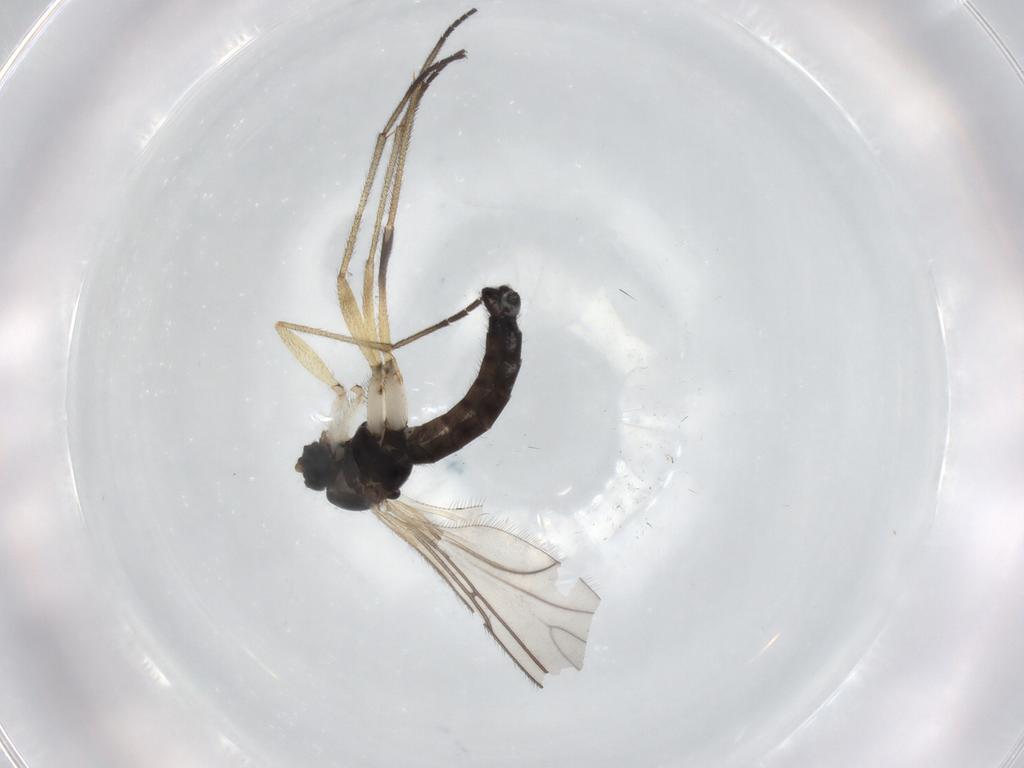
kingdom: Animalia
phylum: Arthropoda
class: Insecta
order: Diptera
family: Sciaridae
